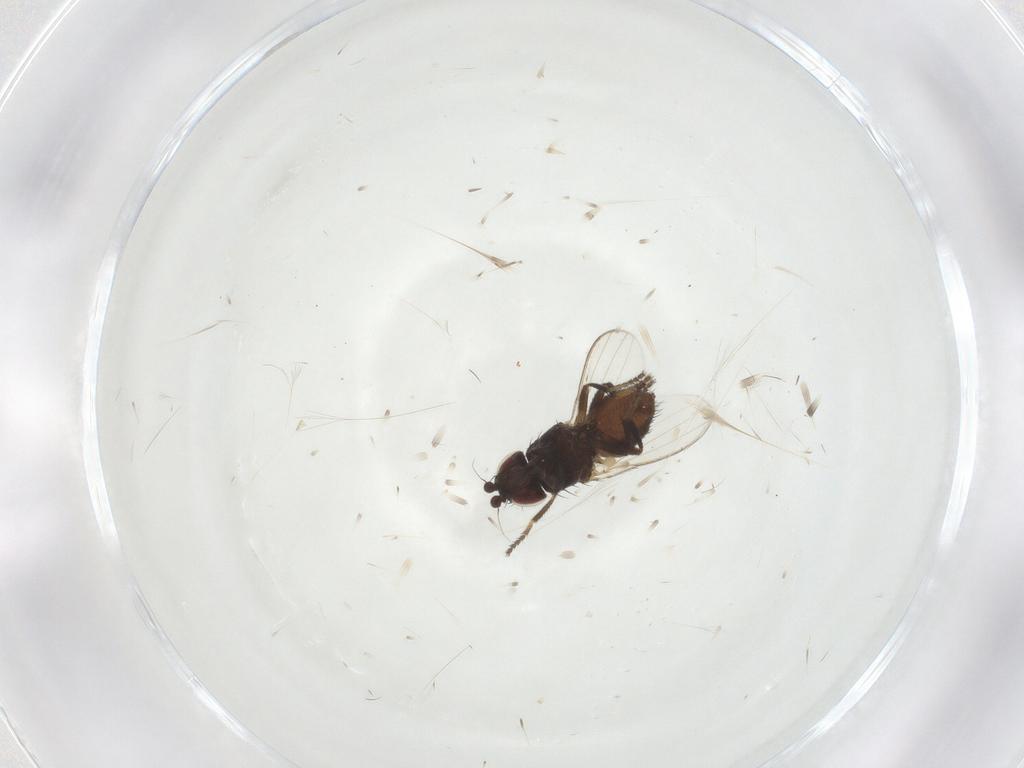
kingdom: Animalia
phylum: Arthropoda
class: Insecta
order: Diptera
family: Milichiidae
